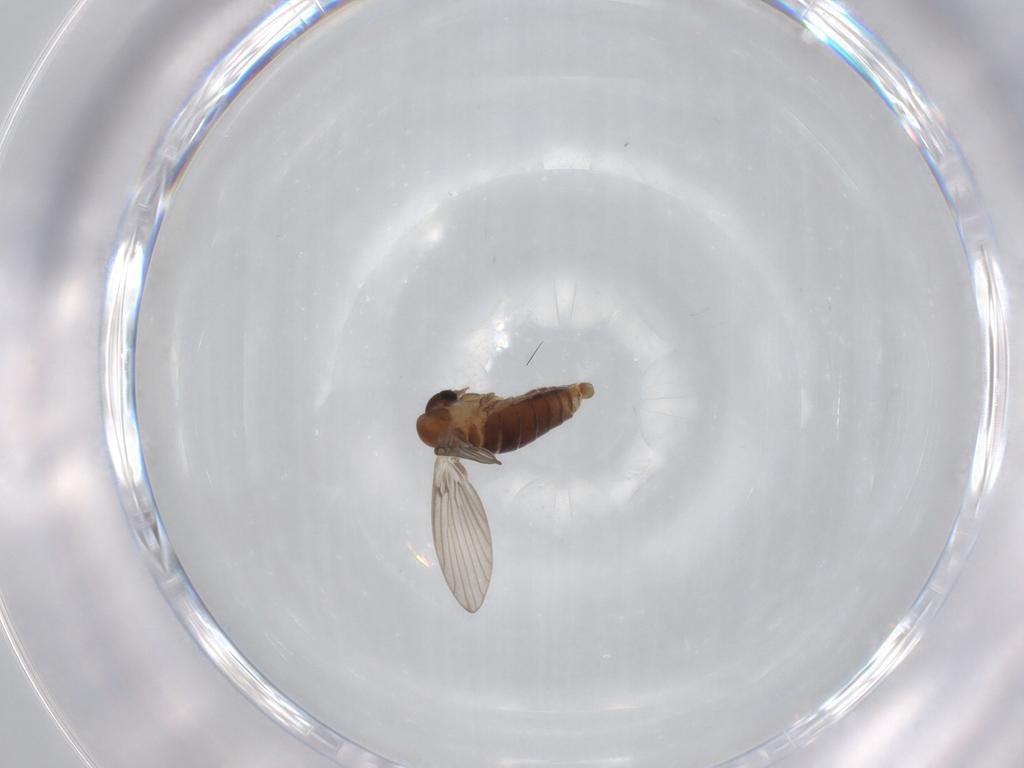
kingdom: Animalia
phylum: Arthropoda
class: Insecta
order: Diptera
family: Psychodidae
